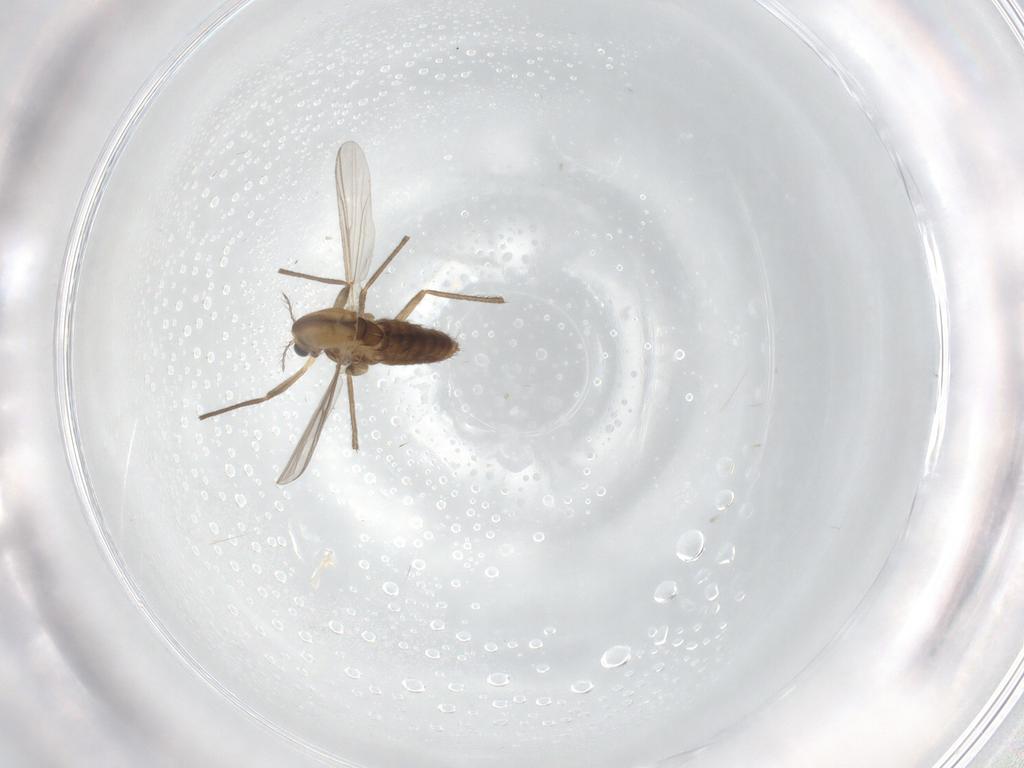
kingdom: Animalia
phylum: Arthropoda
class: Insecta
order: Diptera
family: Chironomidae
